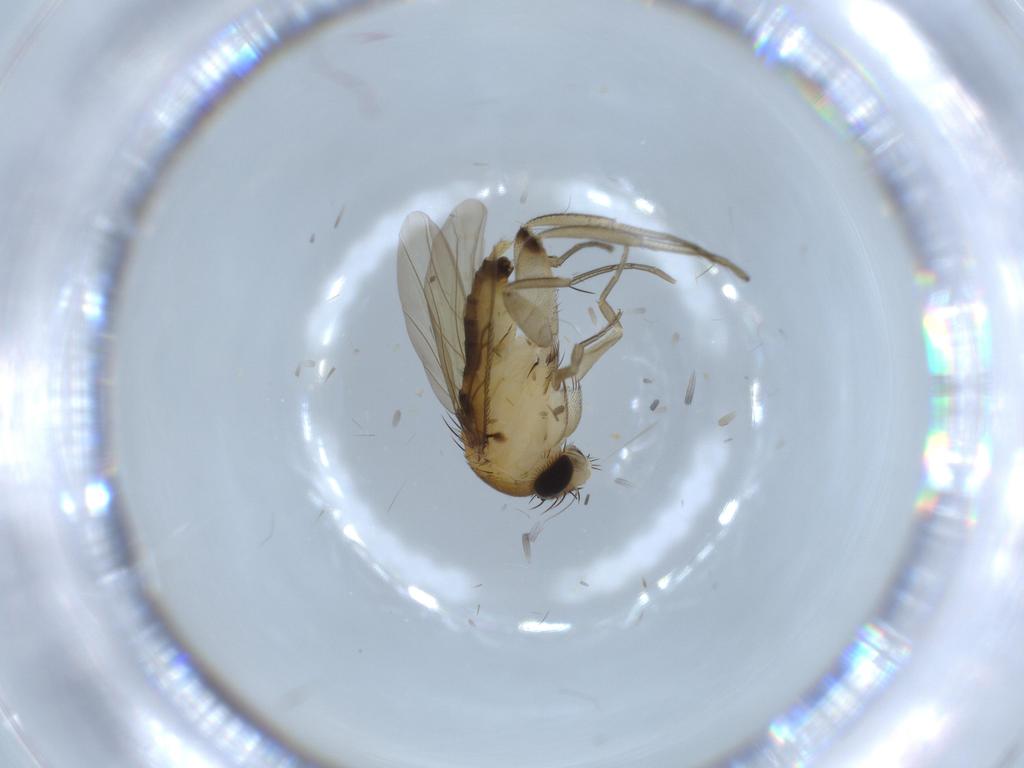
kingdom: Animalia
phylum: Arthropoda
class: Insecta
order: Diptera
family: Phoridae
